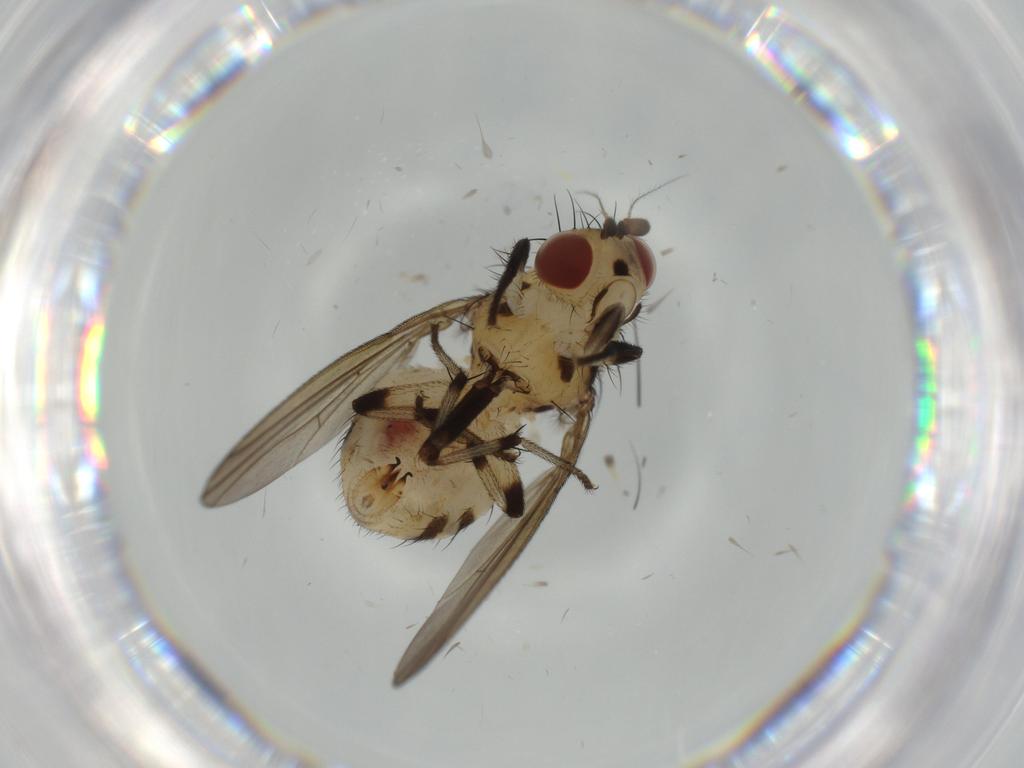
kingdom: Animalia
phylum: Arthropoda
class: Insecta
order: Diptera
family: Lauxaniidae
